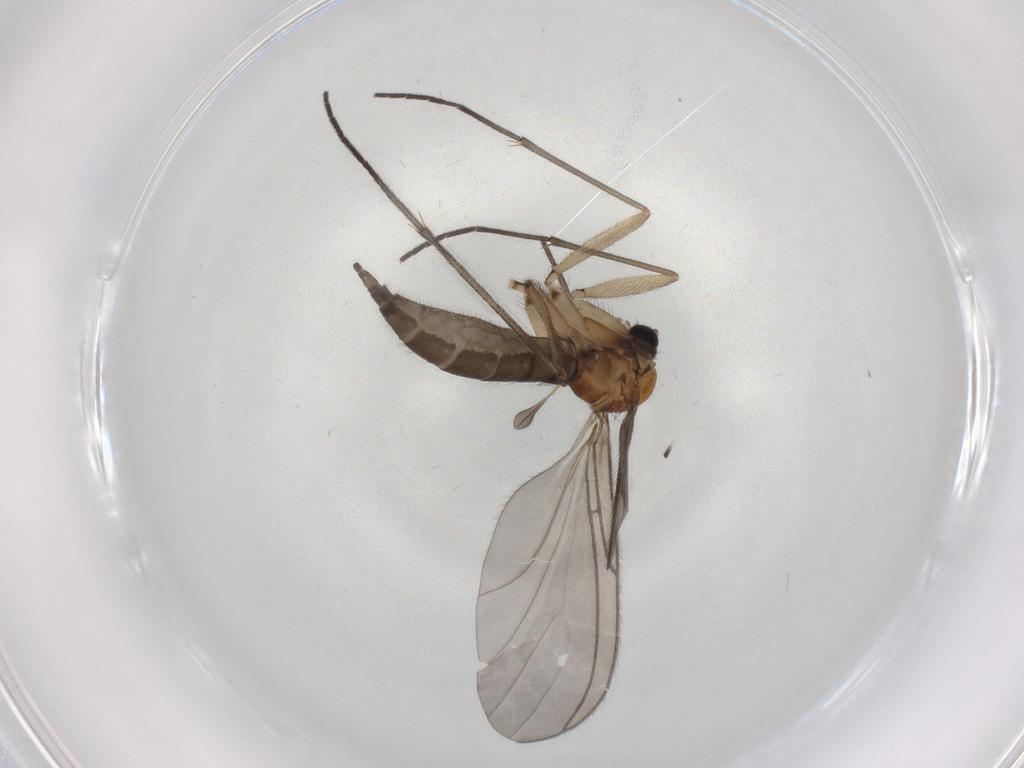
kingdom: Animalia
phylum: Arthropoda
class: Insecta
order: Diptera
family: Sciaridae
